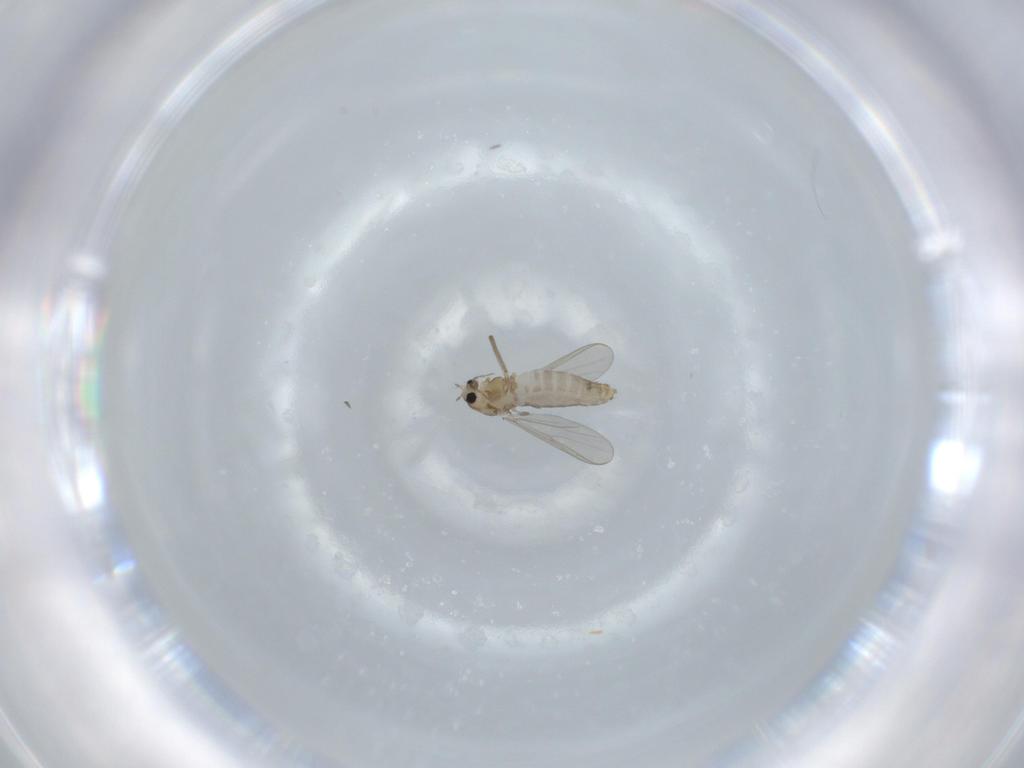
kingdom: Animalia
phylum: Arthropoda
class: Insecta
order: Diptera
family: Chironomidae
